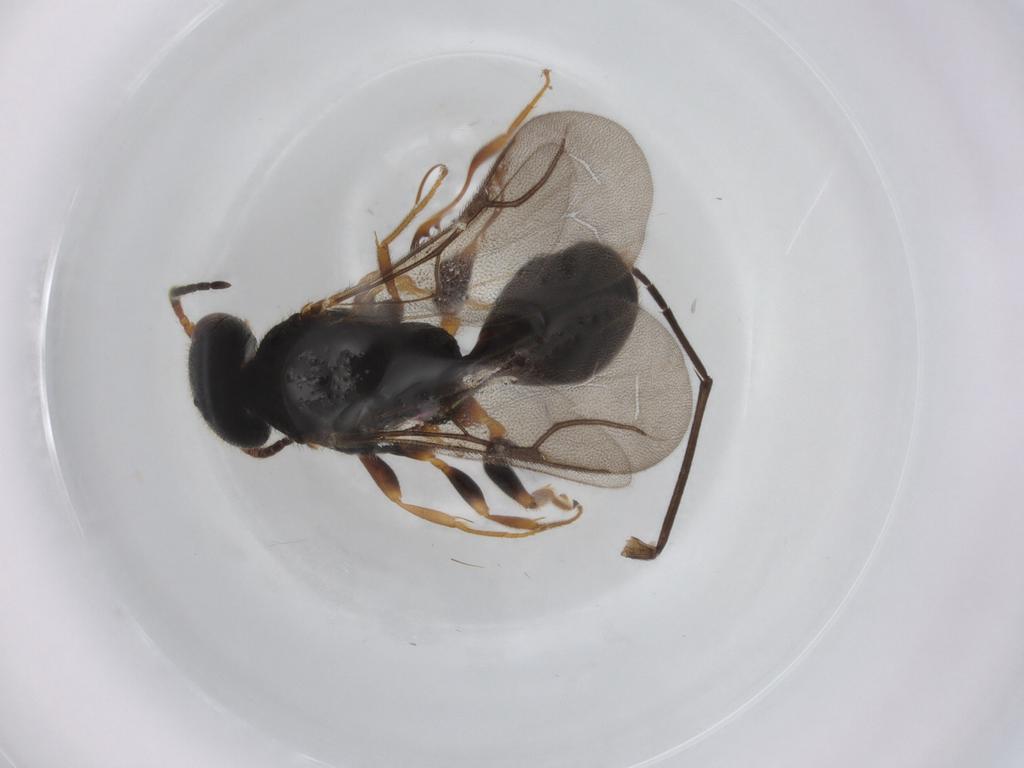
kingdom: Animalia
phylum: Arthropoda
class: Insecta
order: Hymenoptera
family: Bethylidae
